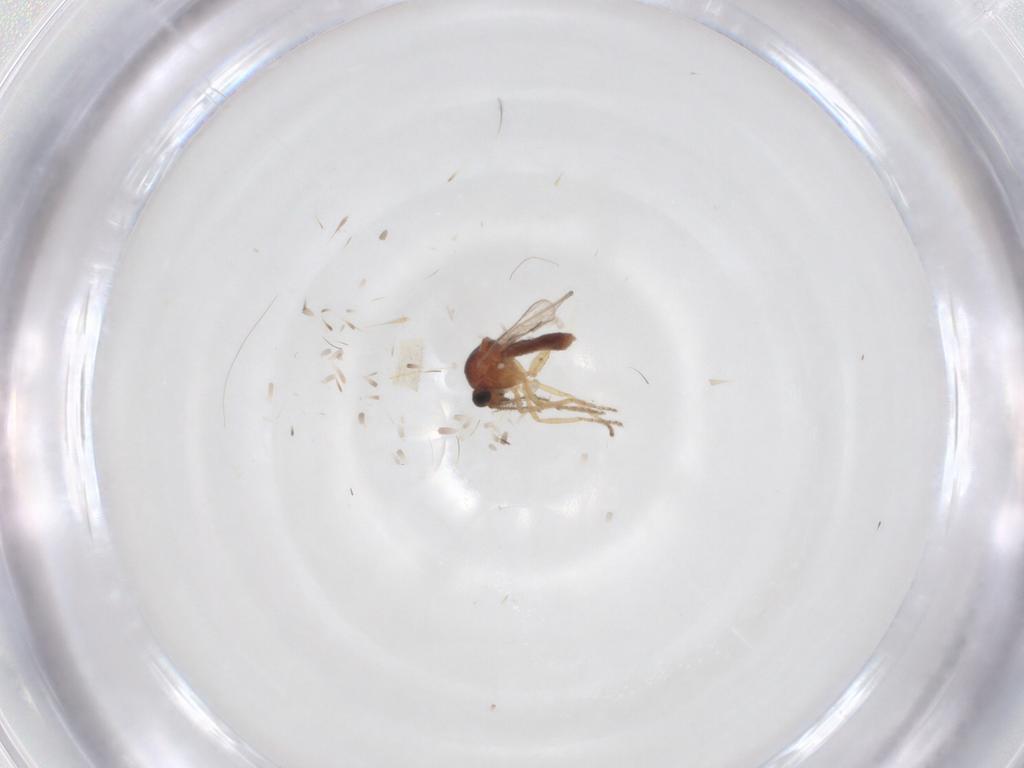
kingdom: Animalia
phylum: Arthropoda
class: Insecta
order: Diptera
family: Ceratopogonidae
